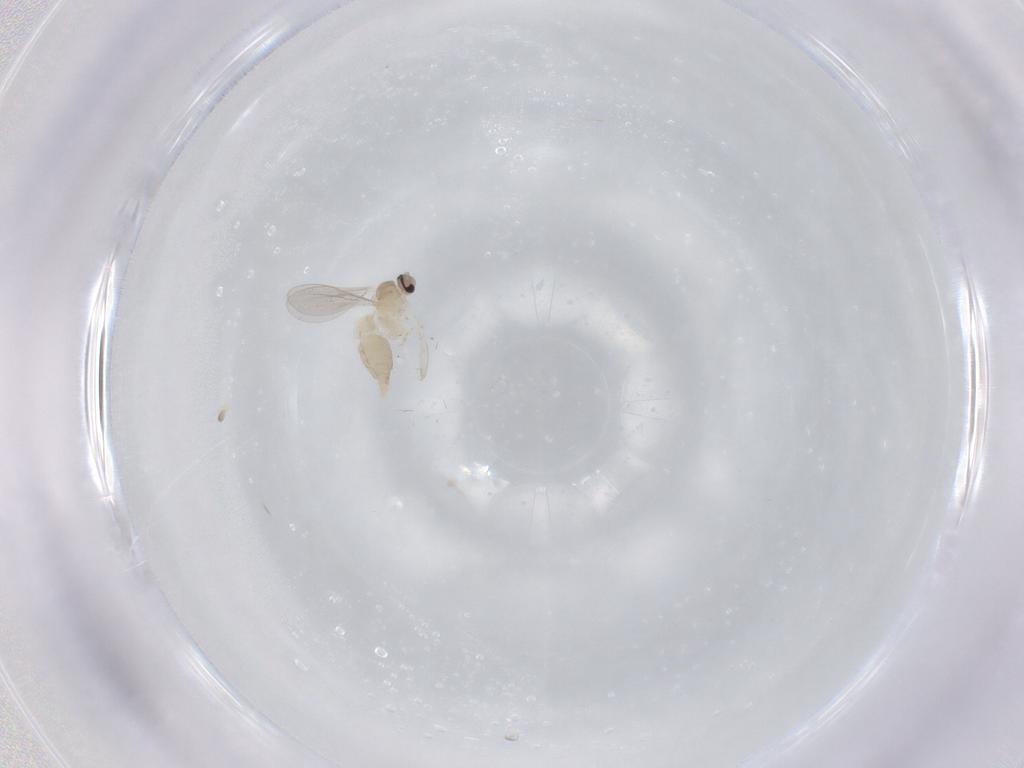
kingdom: Animalia
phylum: Arthropoda
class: Insecta
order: Diptera
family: Cecidomyiidae
